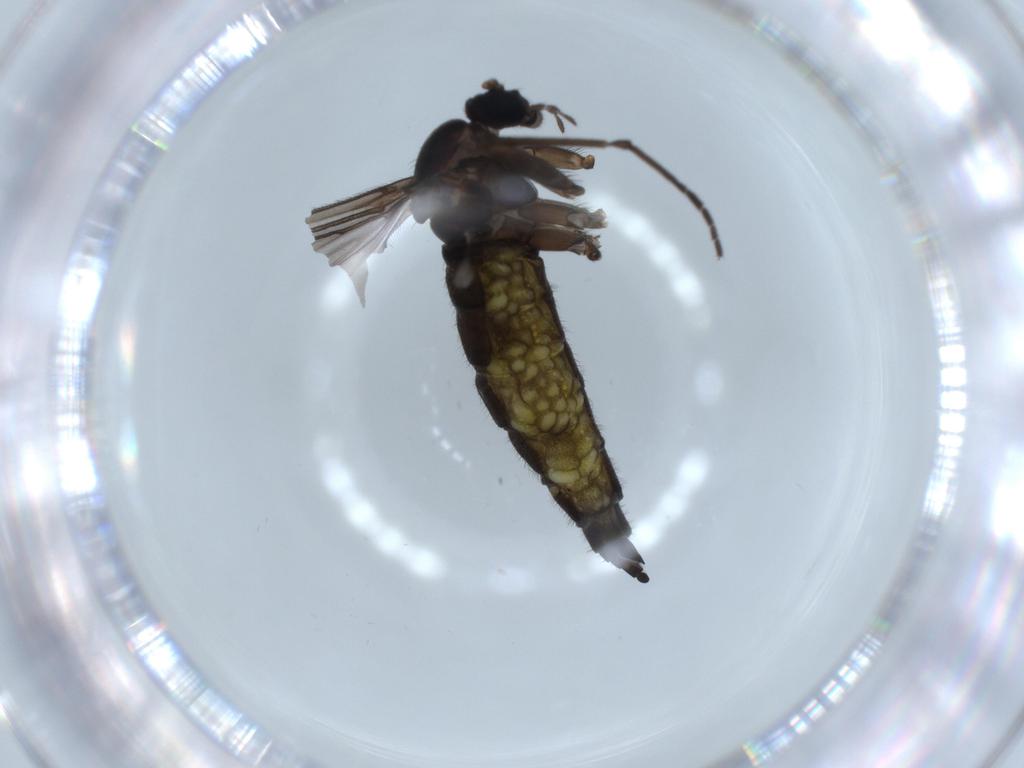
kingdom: Animalia
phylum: Arthropoda
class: Insecta
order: Diptera
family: Sciaridae
